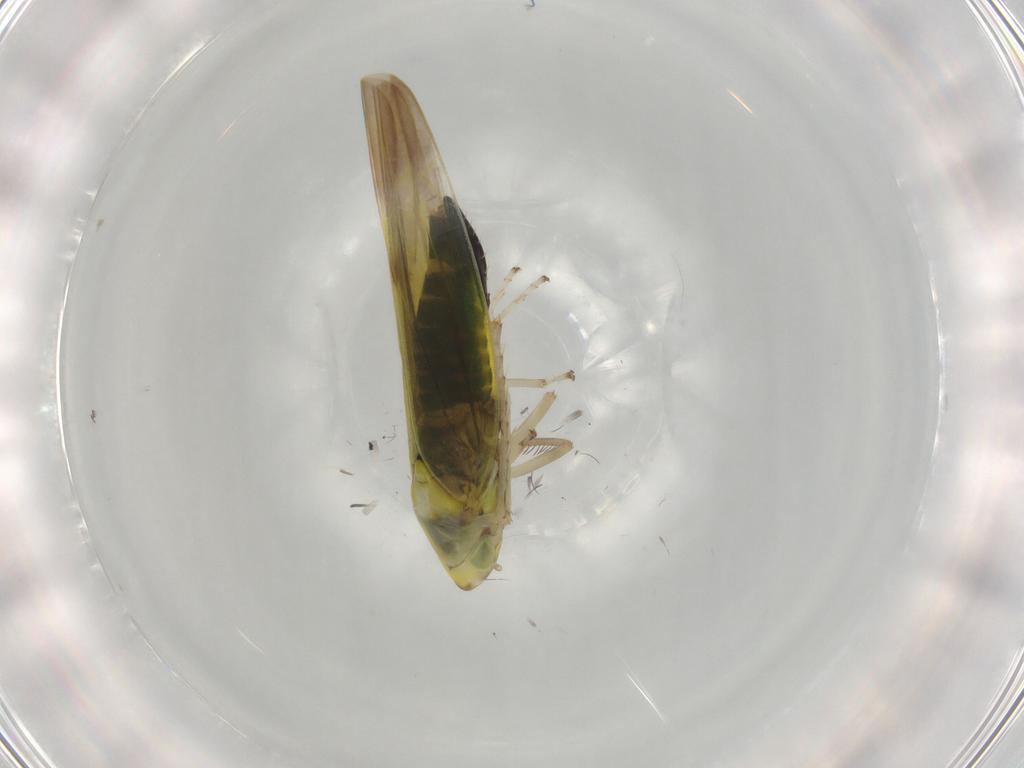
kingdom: Animalia
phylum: Arthropoda
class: Insecta
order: Hemiptera
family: Cicadellidae
